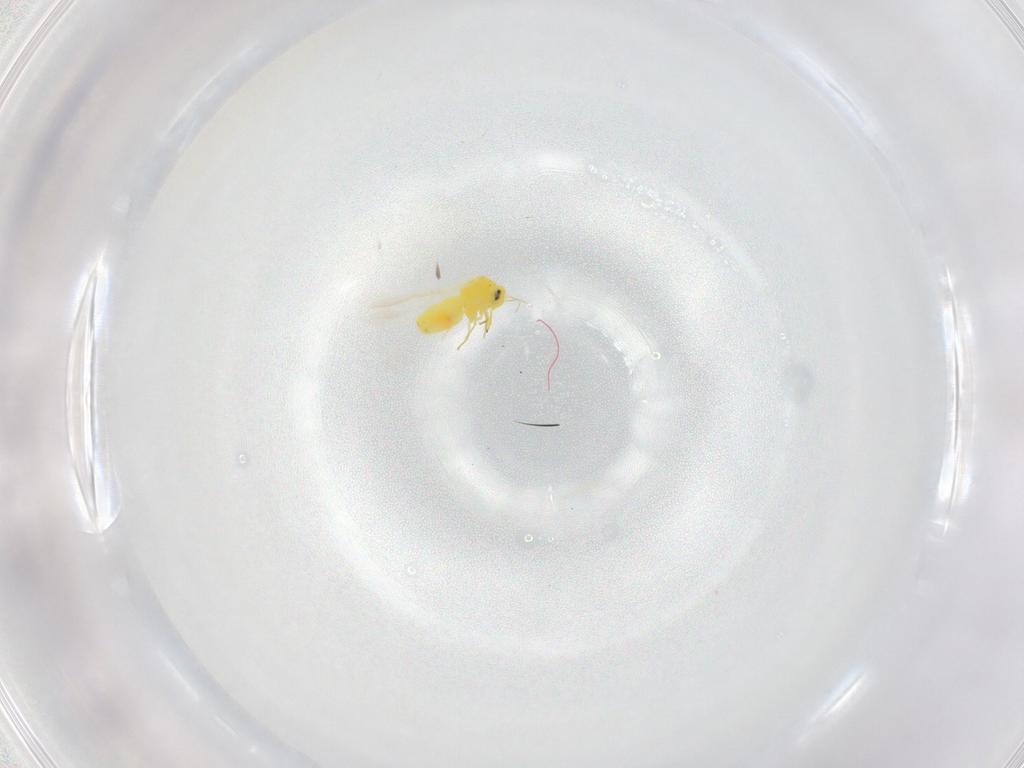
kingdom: Animalia
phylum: Arthropoda
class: Insecta
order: Hemiptera
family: Aleyrodidae
